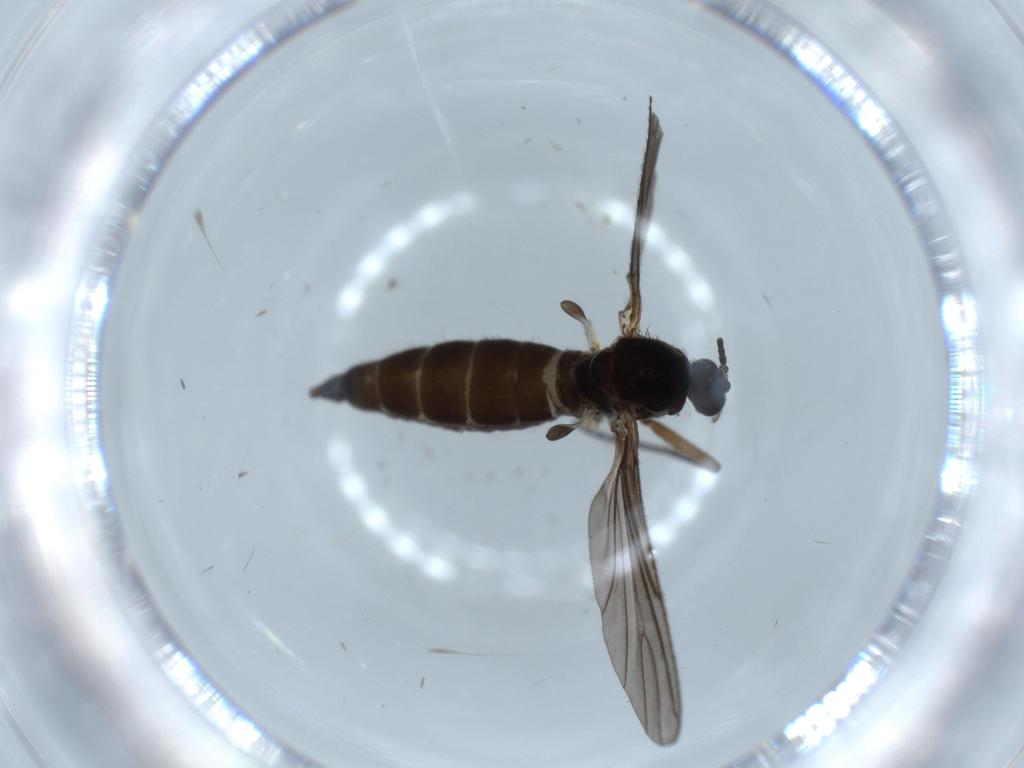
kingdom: Animalia
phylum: Arthropoda
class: Insecta
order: Diptera
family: Sciaridae
